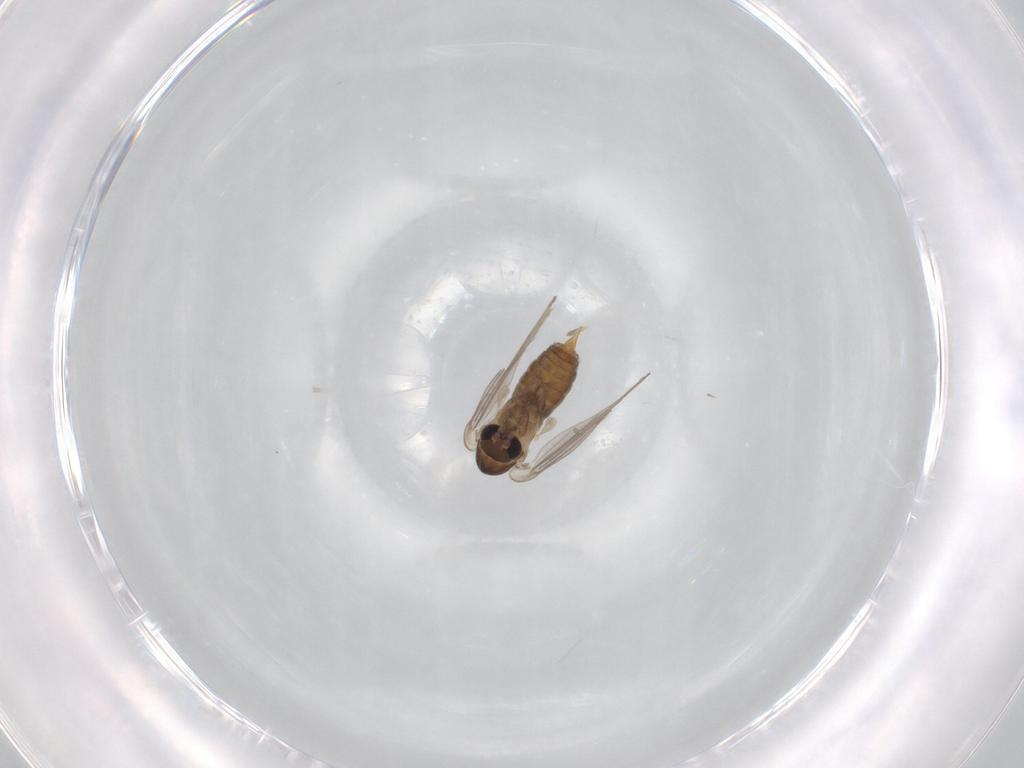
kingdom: Animalia
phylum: Arthropoda
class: Insecta
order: Diptera
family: Psychodidae
